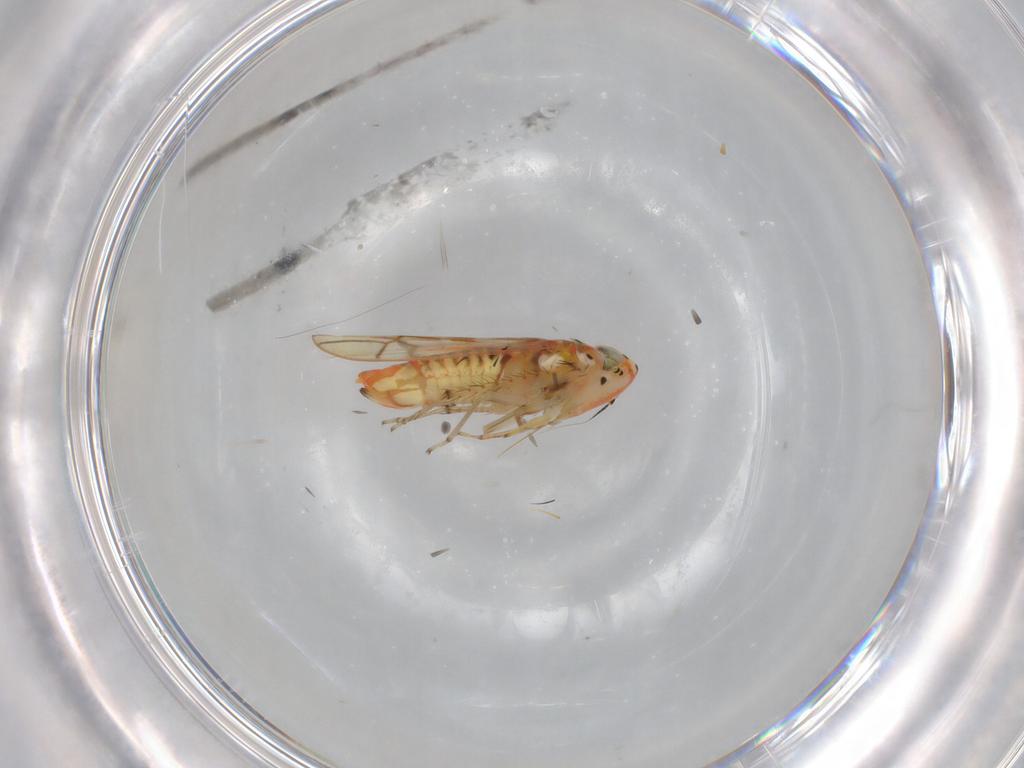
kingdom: Animalia
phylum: Arthropoda
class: Insecta
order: Hemiptera
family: Cicadellidae
